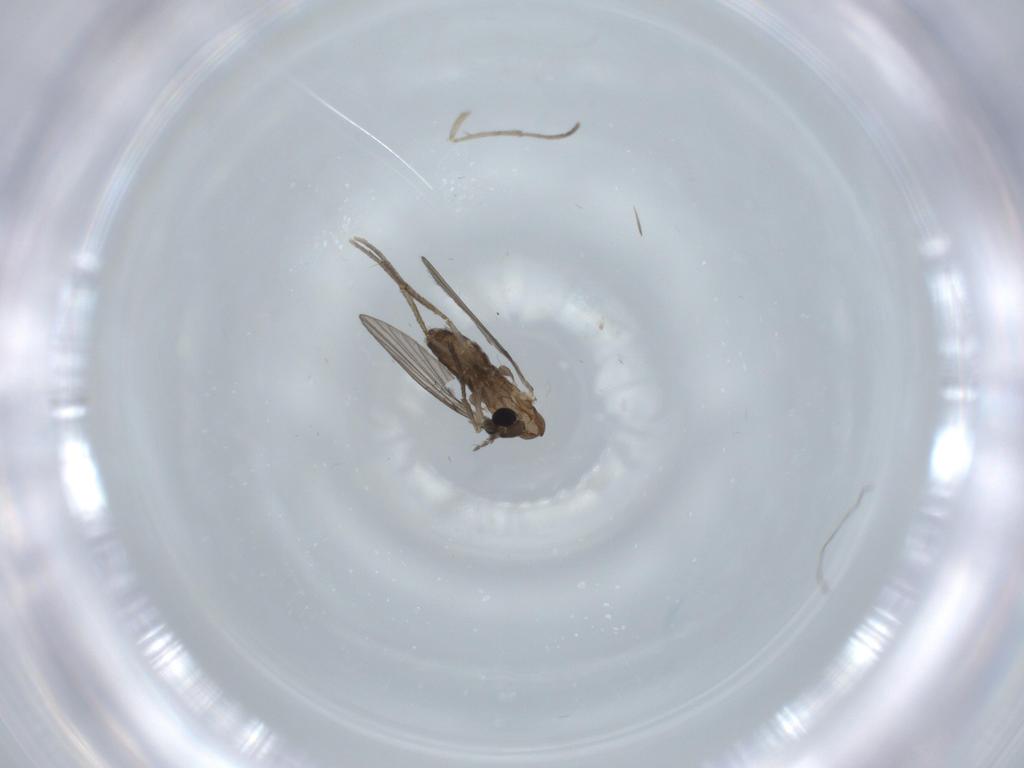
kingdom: Animalia
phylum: Arthropoda
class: Insecta
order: Diptera
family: Psychodidae
